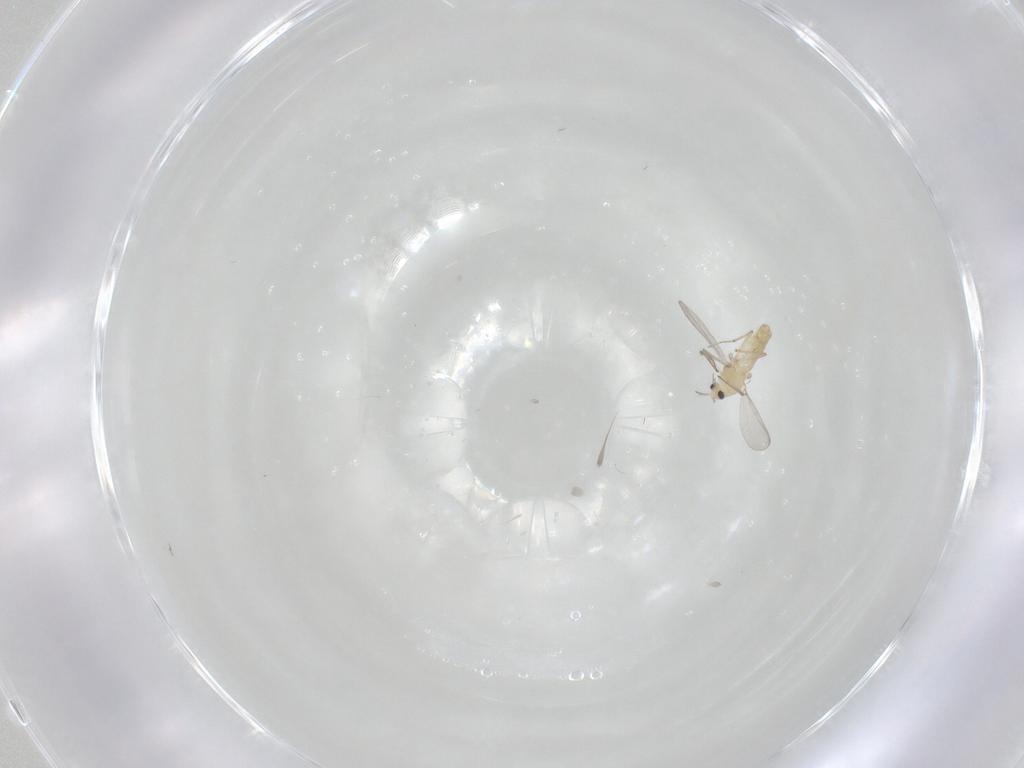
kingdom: Animalia
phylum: Arthropoda
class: Insecta
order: Diptera
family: Chironomidae
